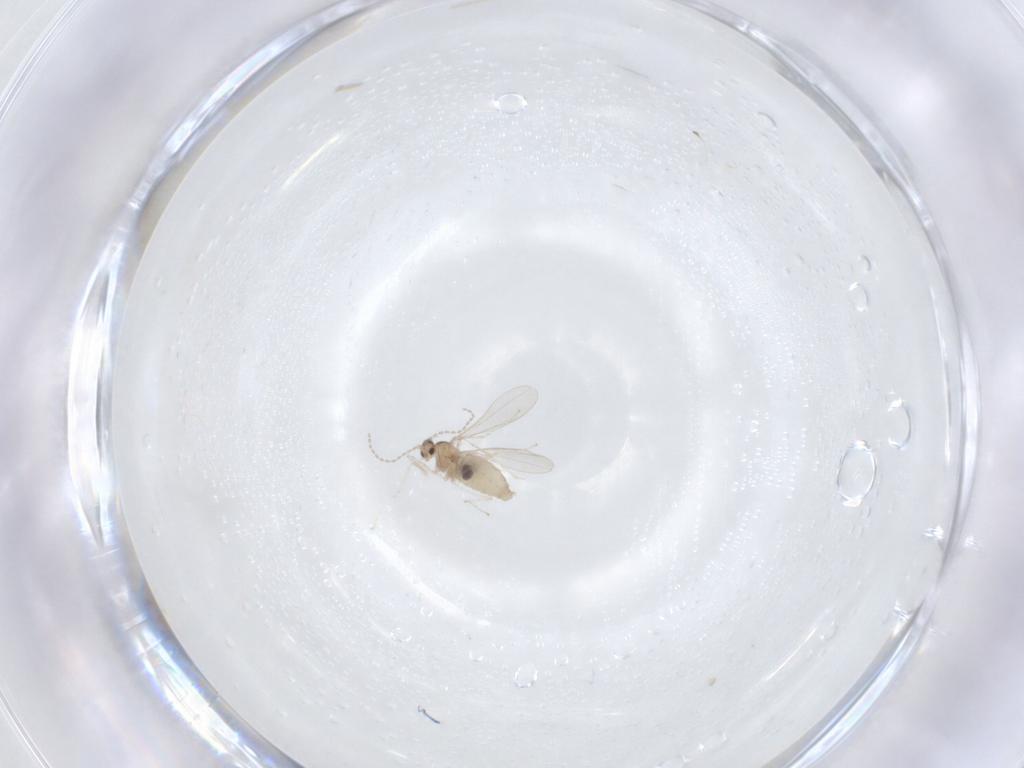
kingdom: Animalia
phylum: Arthropoda
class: Insecta
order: Diptera
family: Cecidomyiidae
